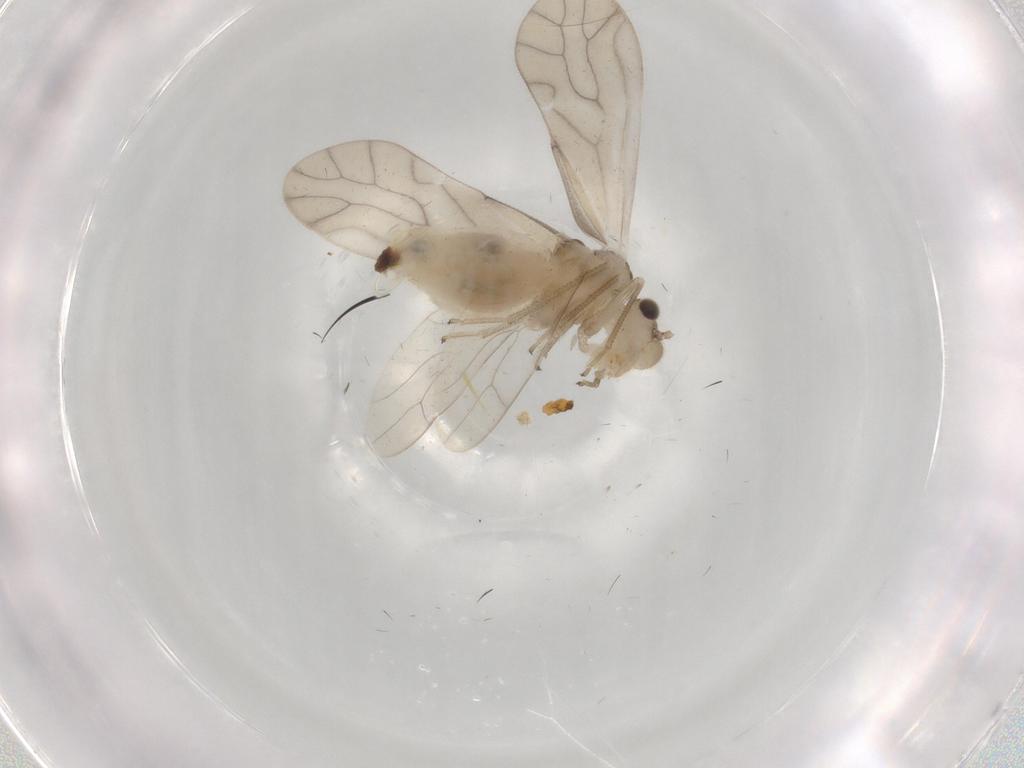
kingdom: Animalia
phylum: Arthropoda
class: Insecta
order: Psocodea
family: Caeciliusidae
